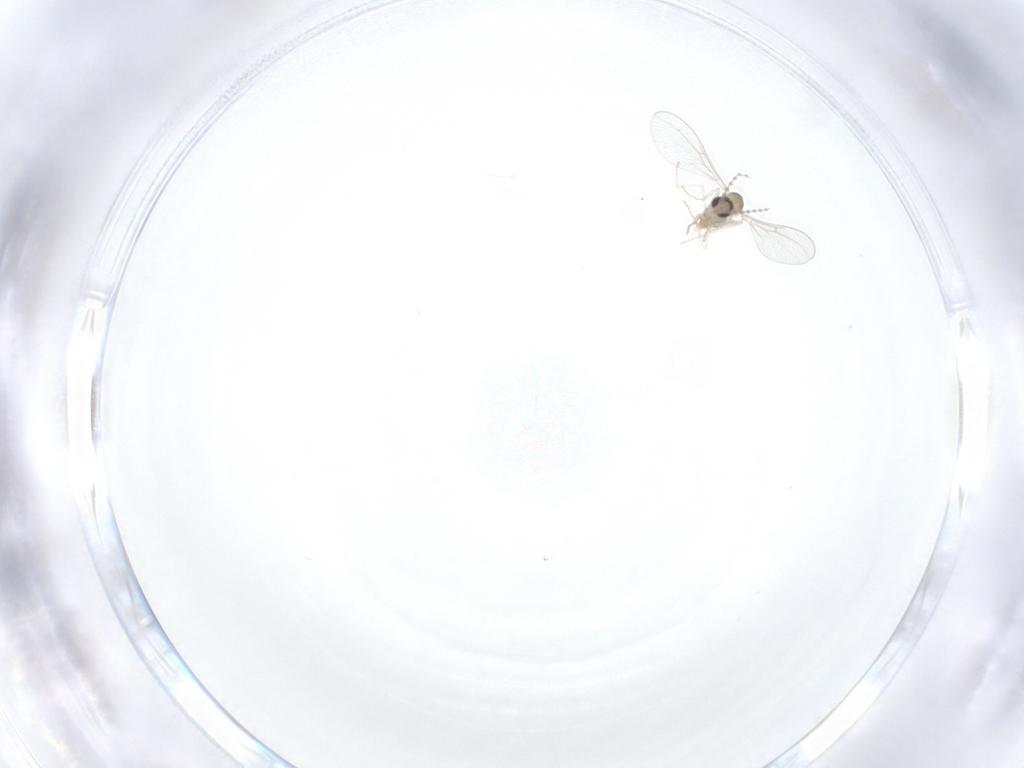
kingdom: Animalia
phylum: Arthropoda
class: Insecta
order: Diptera
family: Cecidomyiidae
